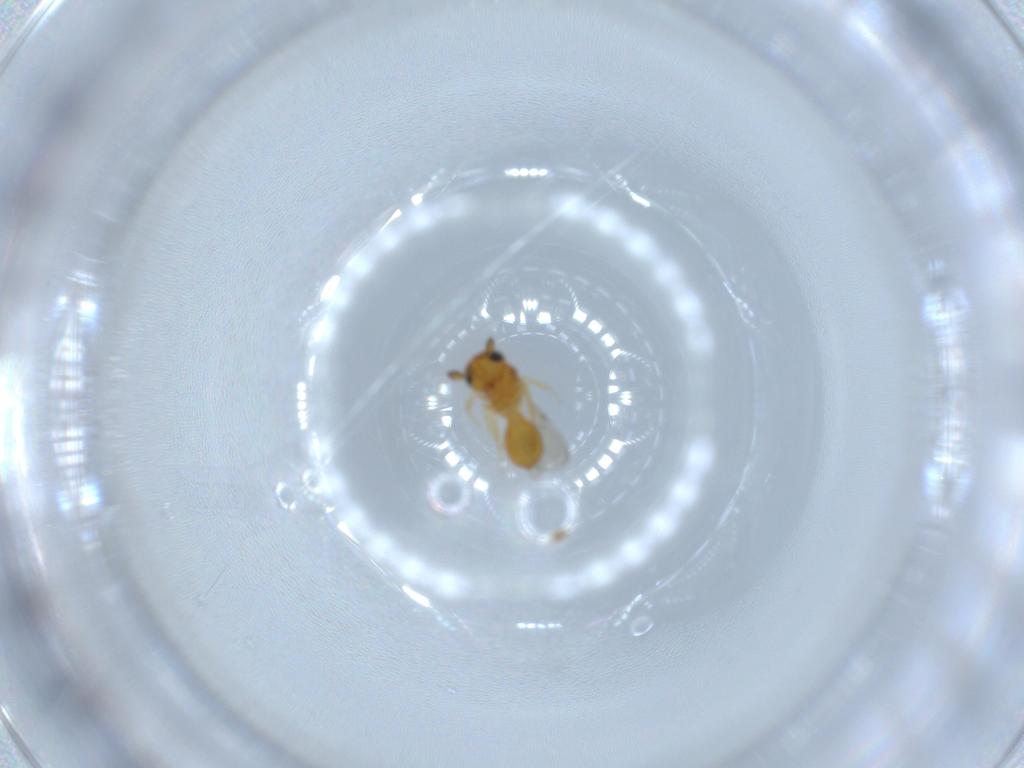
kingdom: Animalia
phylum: Arthropoda
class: Insecta
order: Hymenoptera
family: Scelionidae
